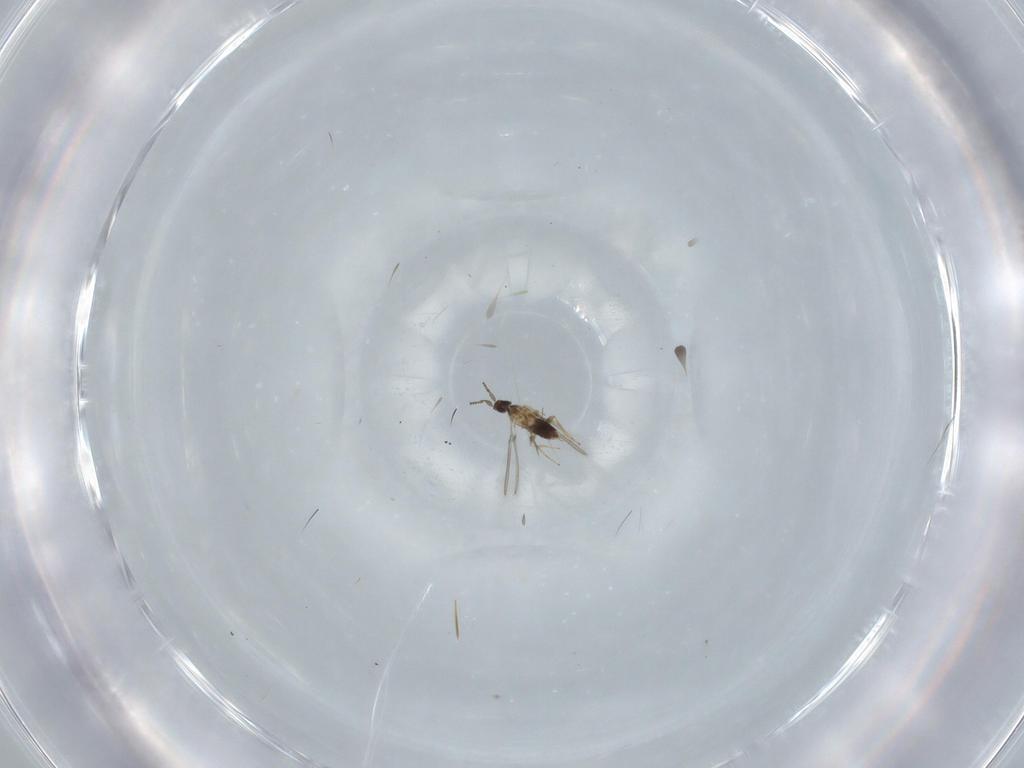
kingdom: Animalia
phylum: Arthropoda
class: Insecta
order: Hymenoptera
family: Mymaridae
